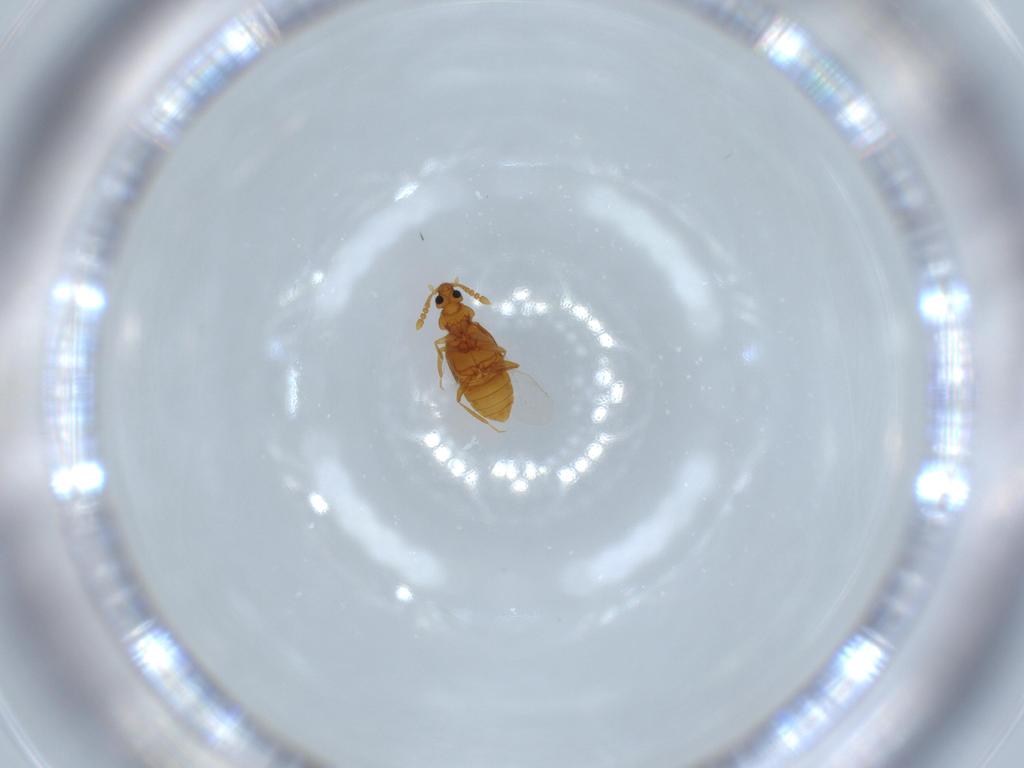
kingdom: Animalia
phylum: Arthropoda
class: Insecta
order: Coleoptera
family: Staphylinidae
